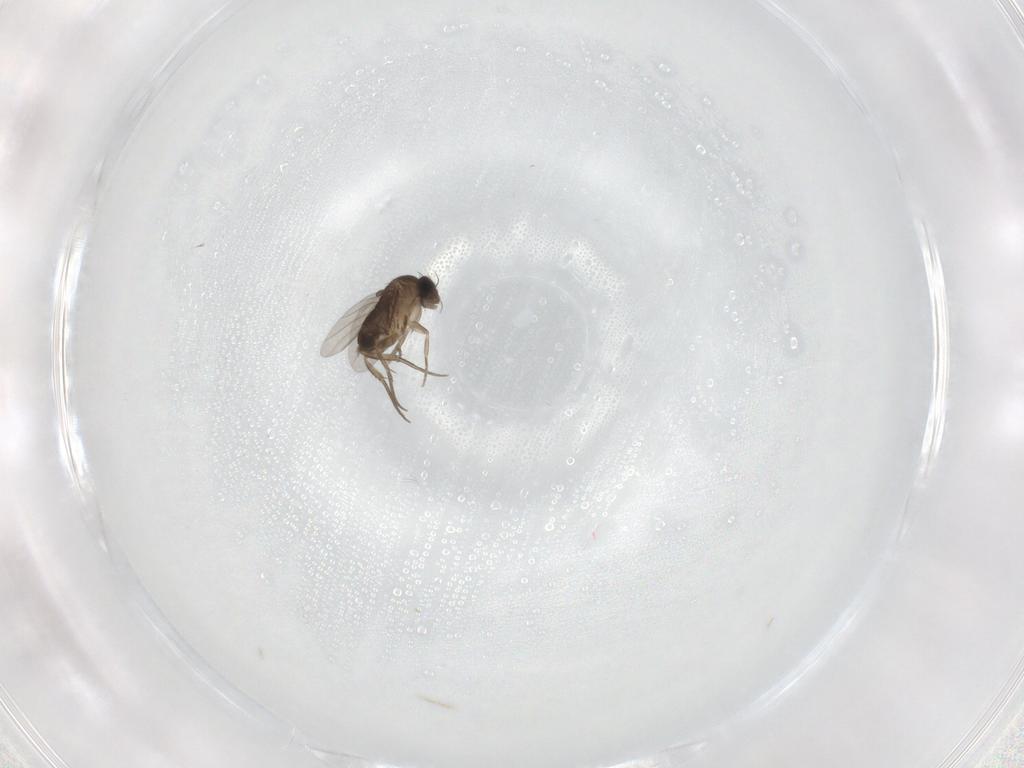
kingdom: Animalia
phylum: Arthropoda
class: Insecta
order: Diptera
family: Phoridae
